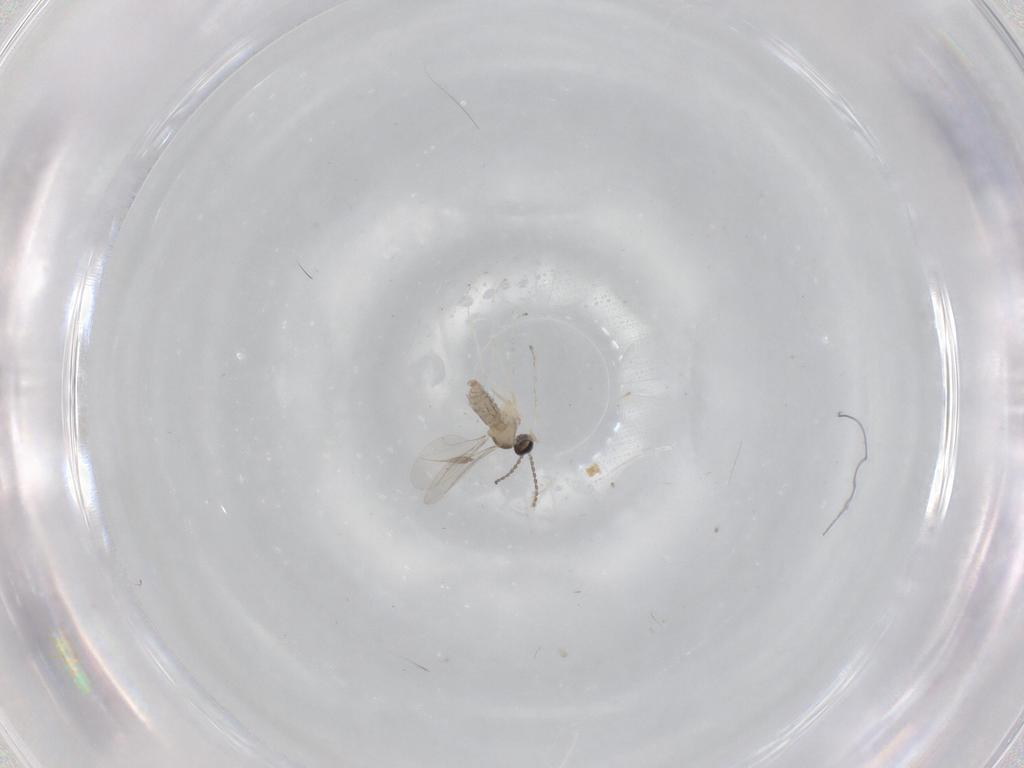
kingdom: Animalia
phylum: Arthropoda
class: Insecta
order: Diptera
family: Cecidomyiidae
